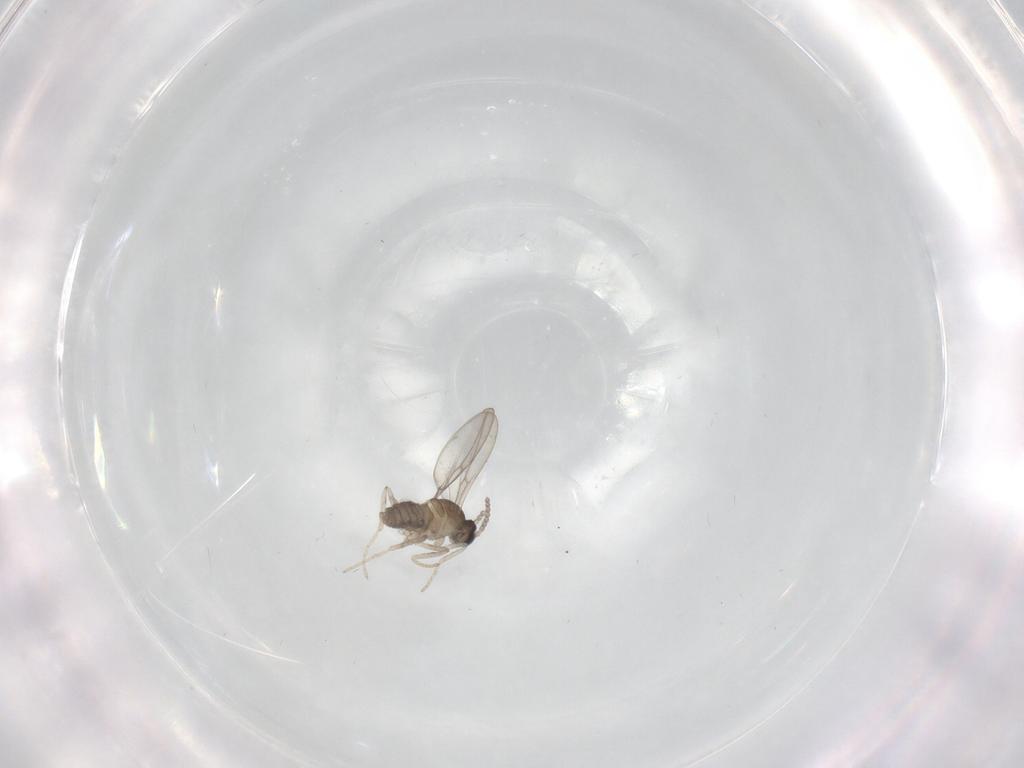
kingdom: Animalia
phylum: Arthropoda
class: Insecta
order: Diptera
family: Cecidomyiidae
